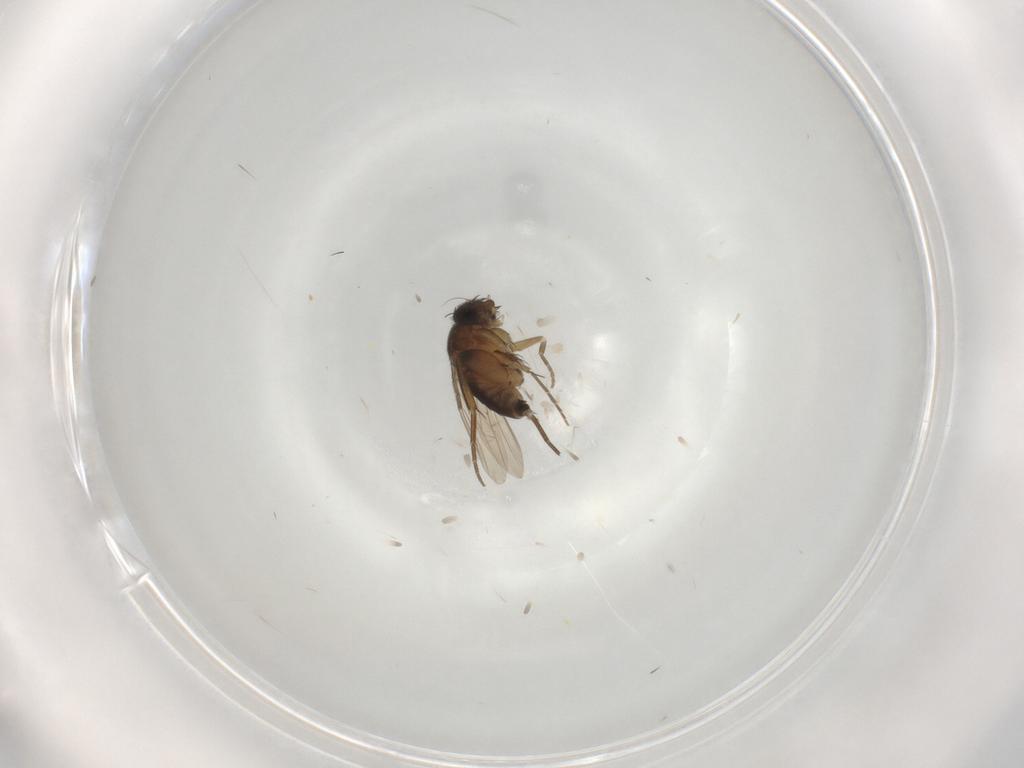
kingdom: Animalia
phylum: Arthropoda
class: Insecta
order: Diptera
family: Phoridae
